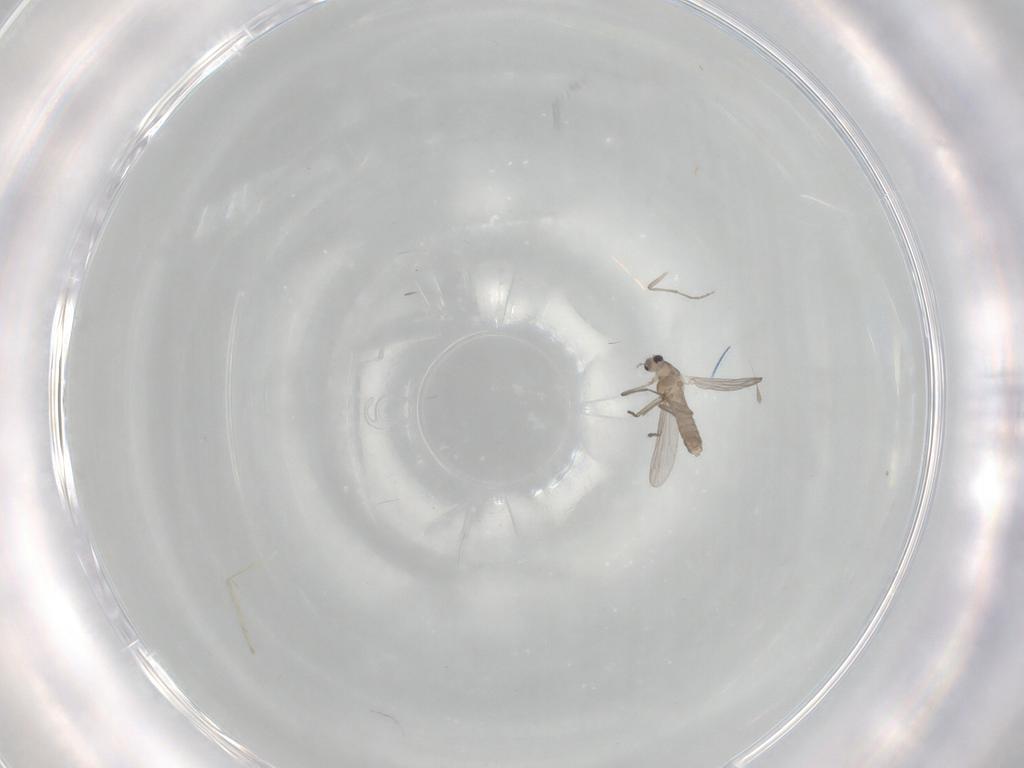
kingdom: Animalia
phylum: Arthropoda
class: Insecta
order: Diptera
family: Chironomidae
